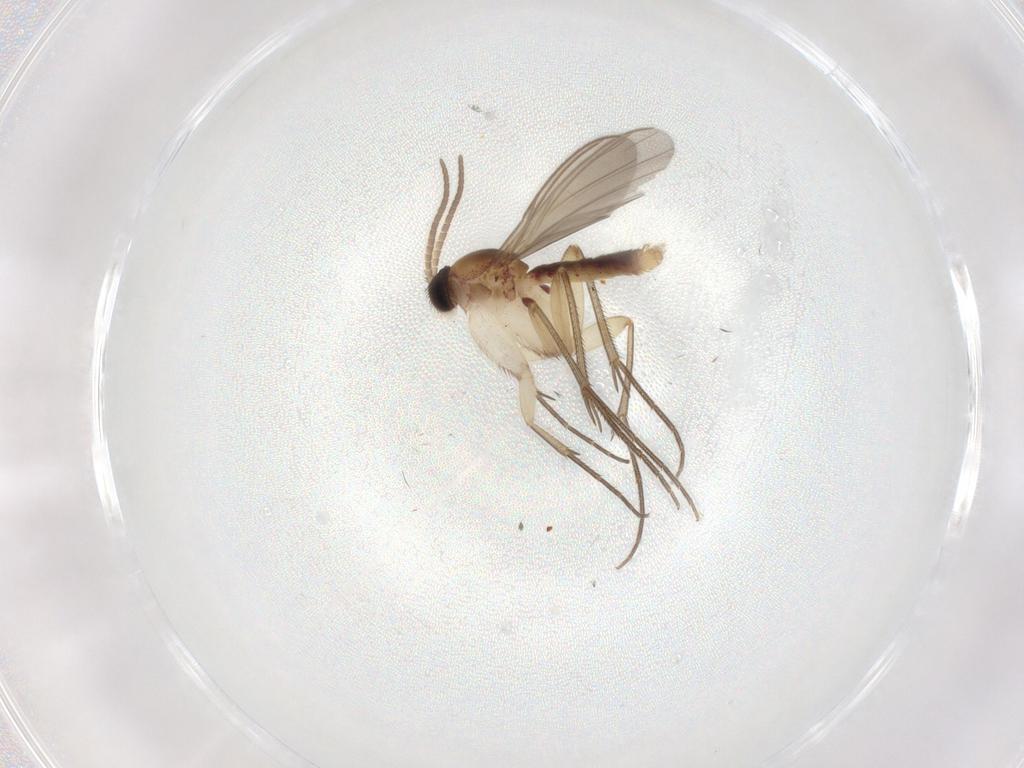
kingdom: Animalia
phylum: Arthropoda
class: Insecta
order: Diptera
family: Mycetophilidae
